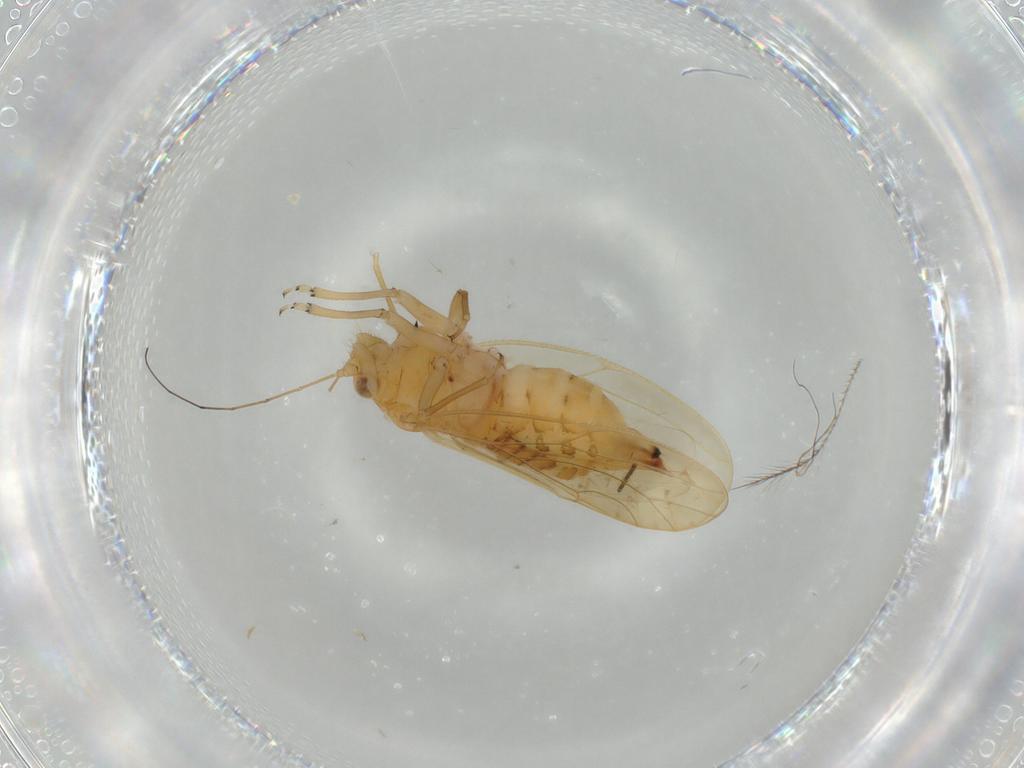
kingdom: Animalia
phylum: Arthropoda
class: Insecta
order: Hemiptera
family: Psyllidae
